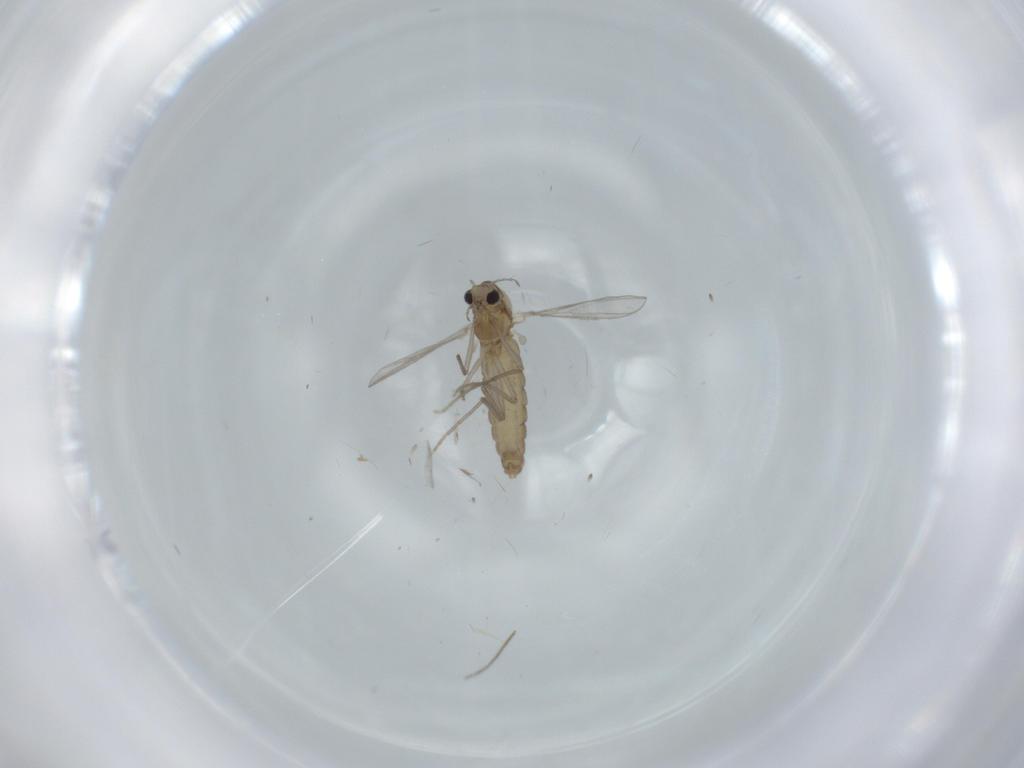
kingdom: Animalia
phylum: Arthropoda
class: Insecta
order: Diptera
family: Chironomidae
